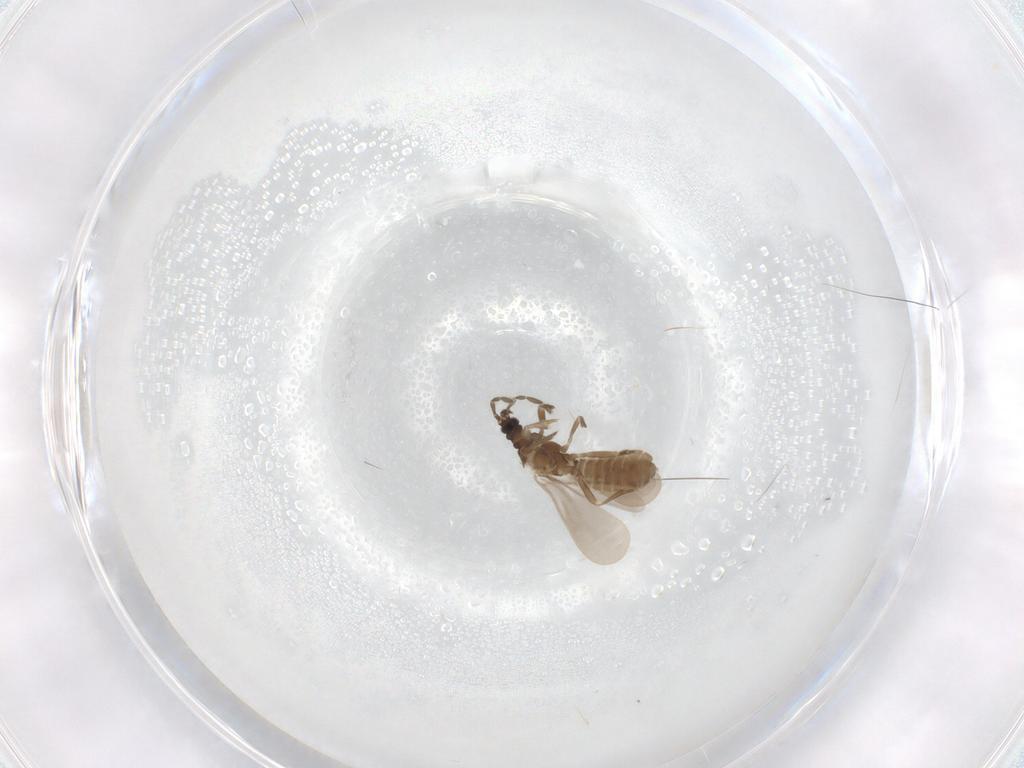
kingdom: Animalia
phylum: Arthropoda
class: Insecta
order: Hemiptera
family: Enicocephalidae
